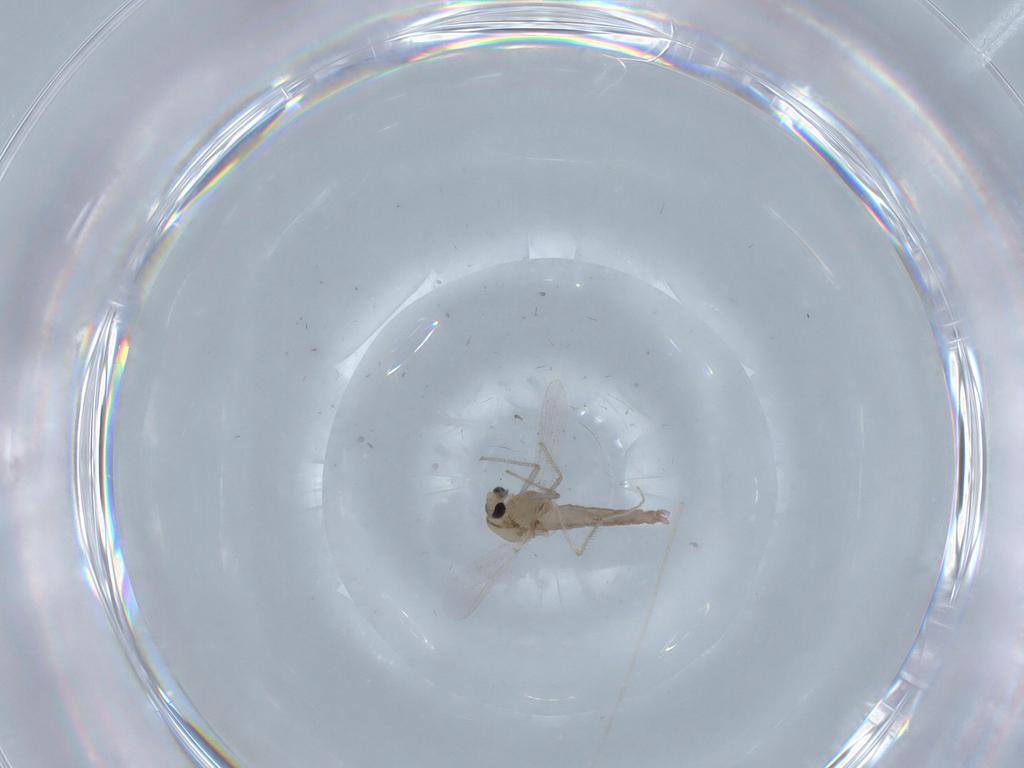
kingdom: Animalia
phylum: Arthropoda
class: Insecta
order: Diptera
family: Chironomidae
